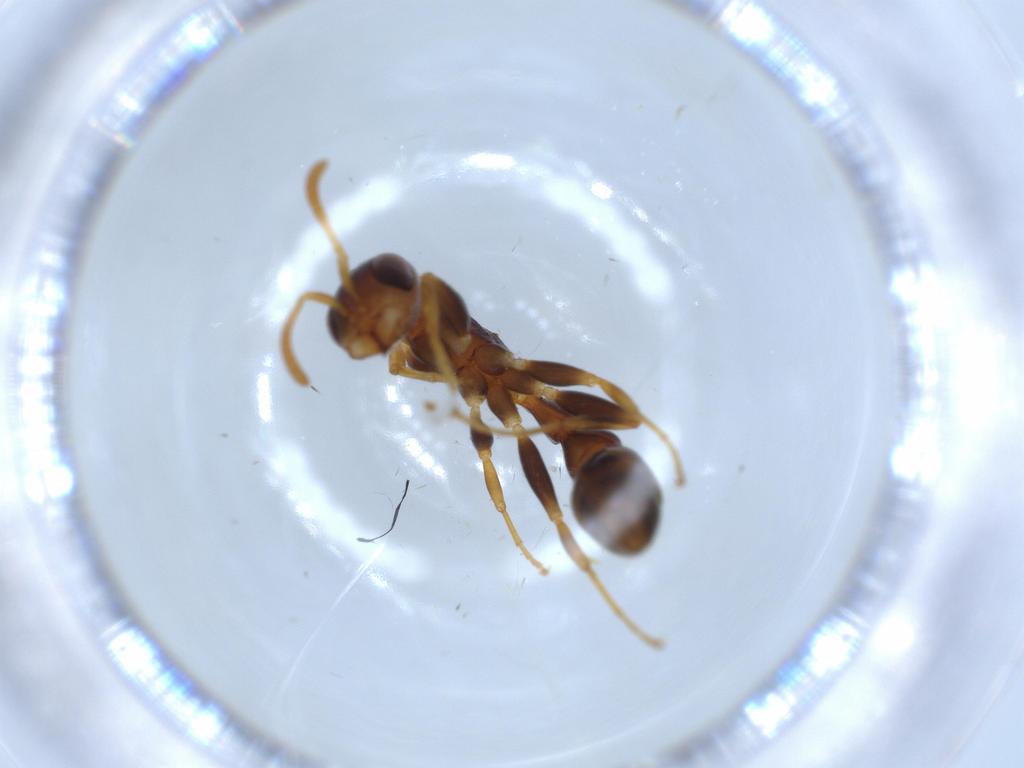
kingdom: Animalia
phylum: Arthropoda
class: Insecta
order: Hymenoptera
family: Formicidae
